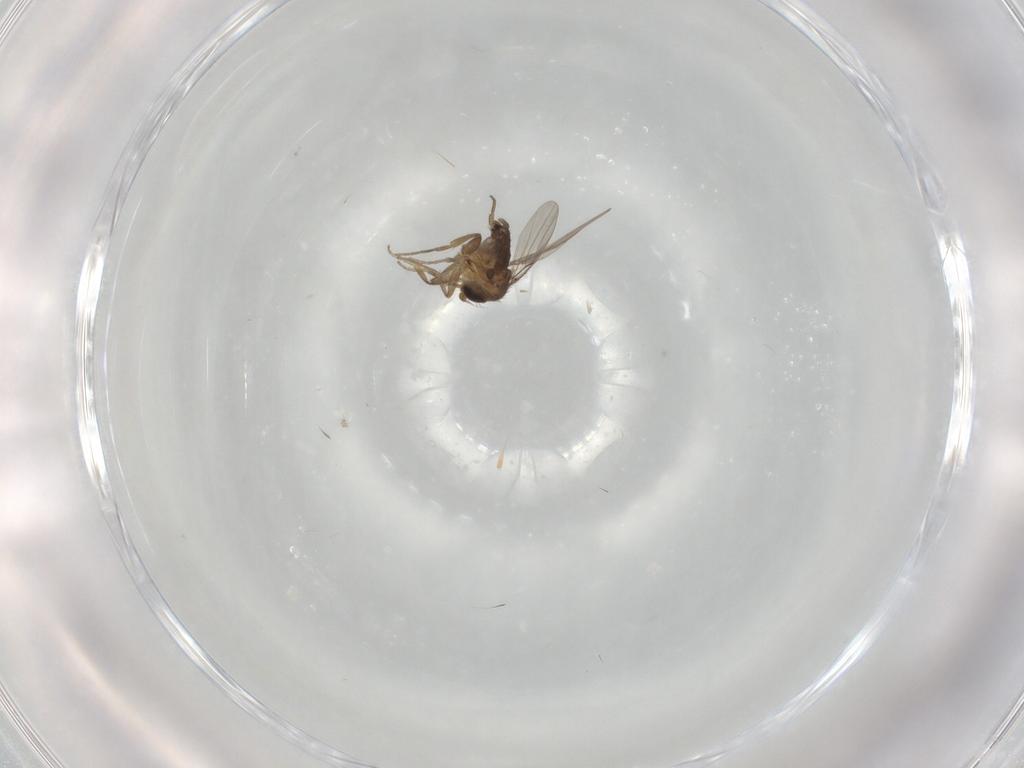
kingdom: Animalia
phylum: Arthropoda
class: Insecta
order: Diptera
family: Phoridae
